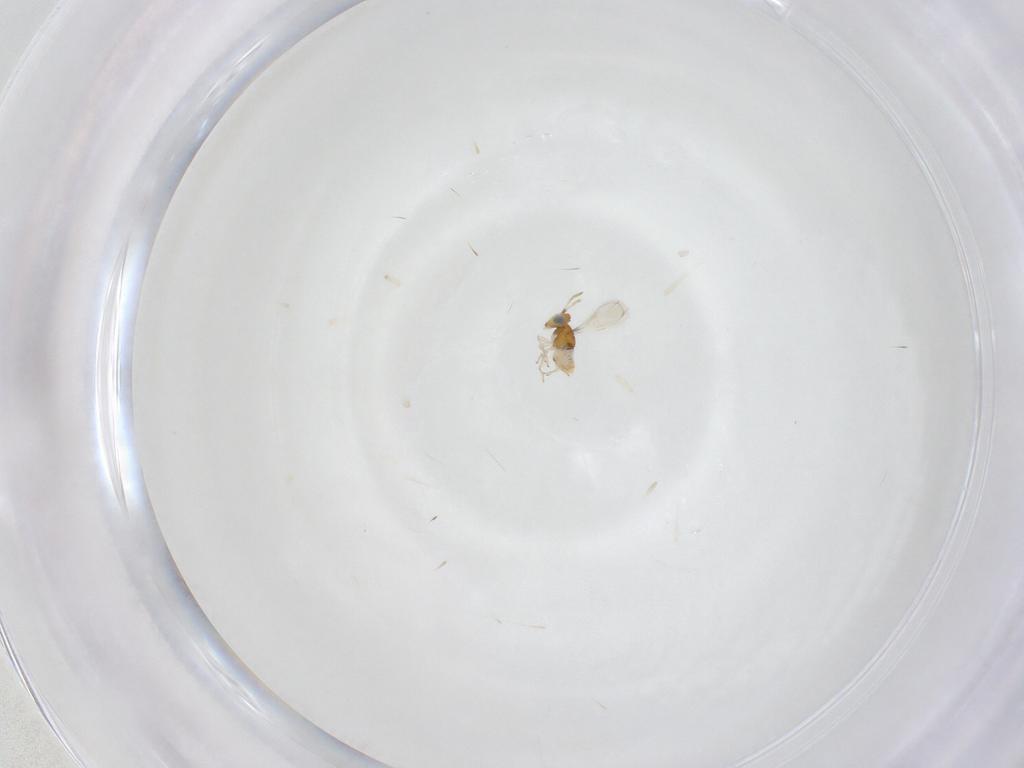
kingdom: Animalia
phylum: Arthropoda
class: Insecta
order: Hymenoptera
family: Aphelinidae
